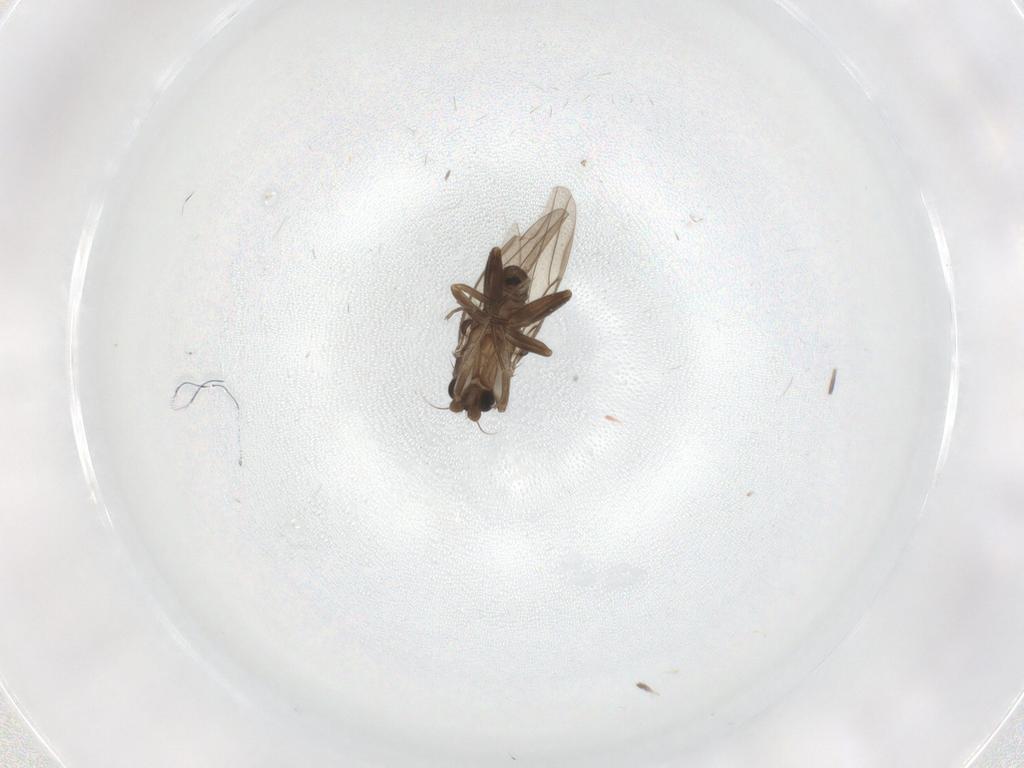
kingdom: Animalia
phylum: Arthropoda
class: Insecta
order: Diptera
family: Phoridae
